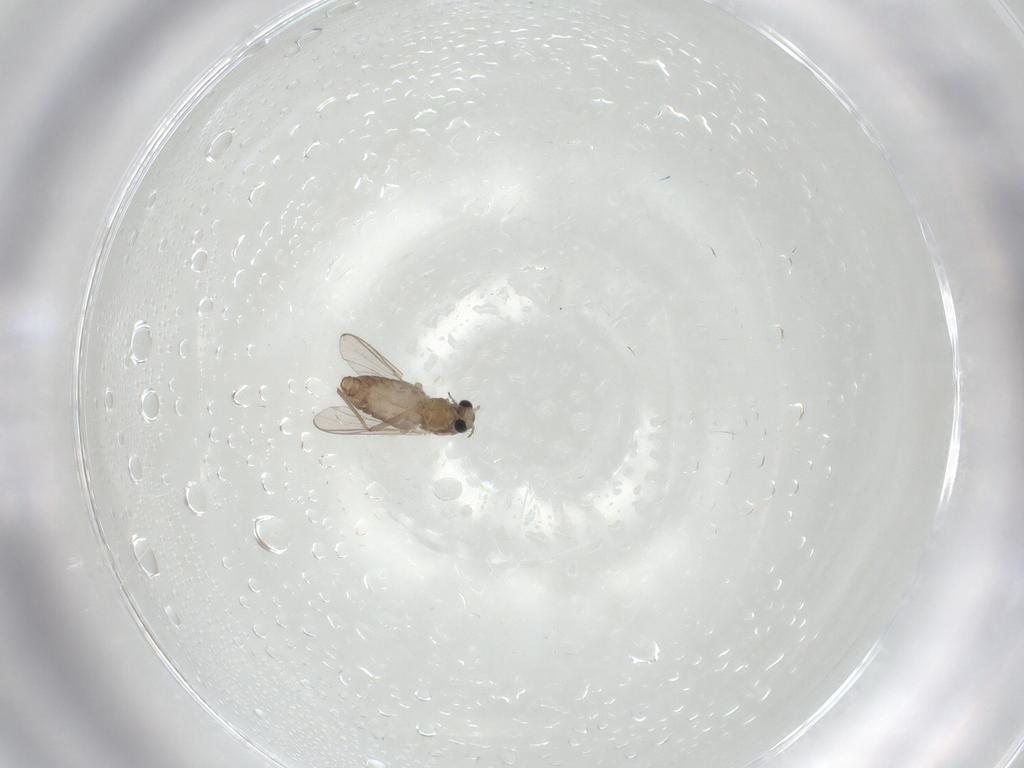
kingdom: Animalia
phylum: Arthropoda
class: Insecta
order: Diptera
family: Chironomidae
